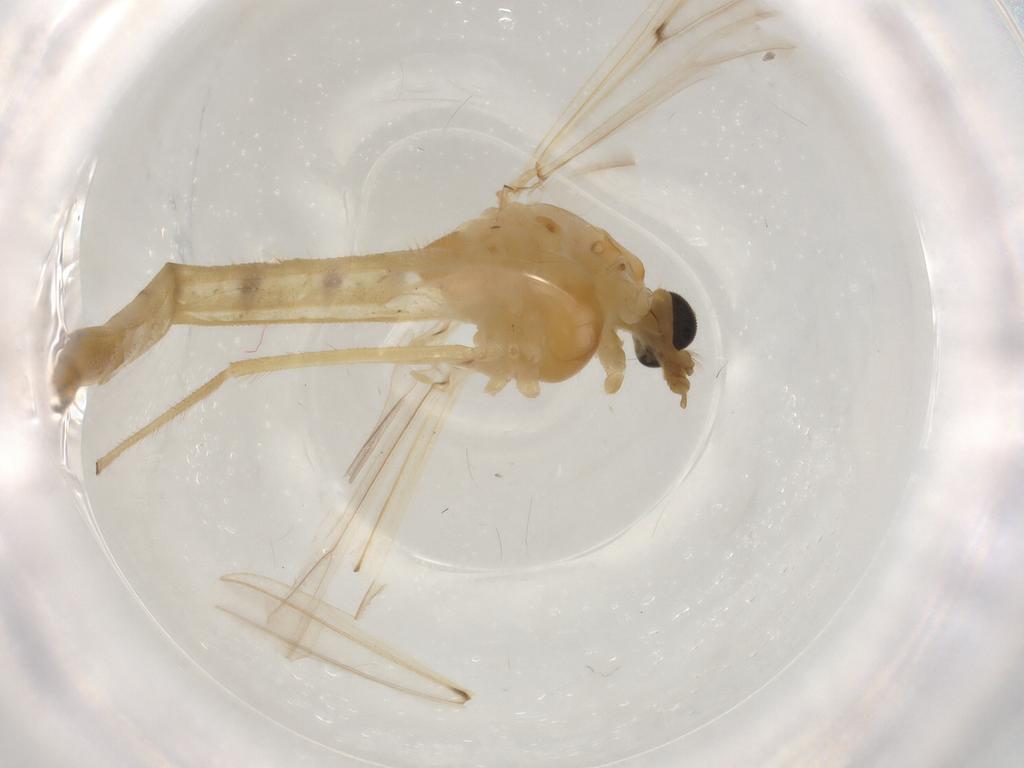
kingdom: Animalia
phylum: Arthropoda
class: Insecta
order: Diptera
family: Chironomidae
